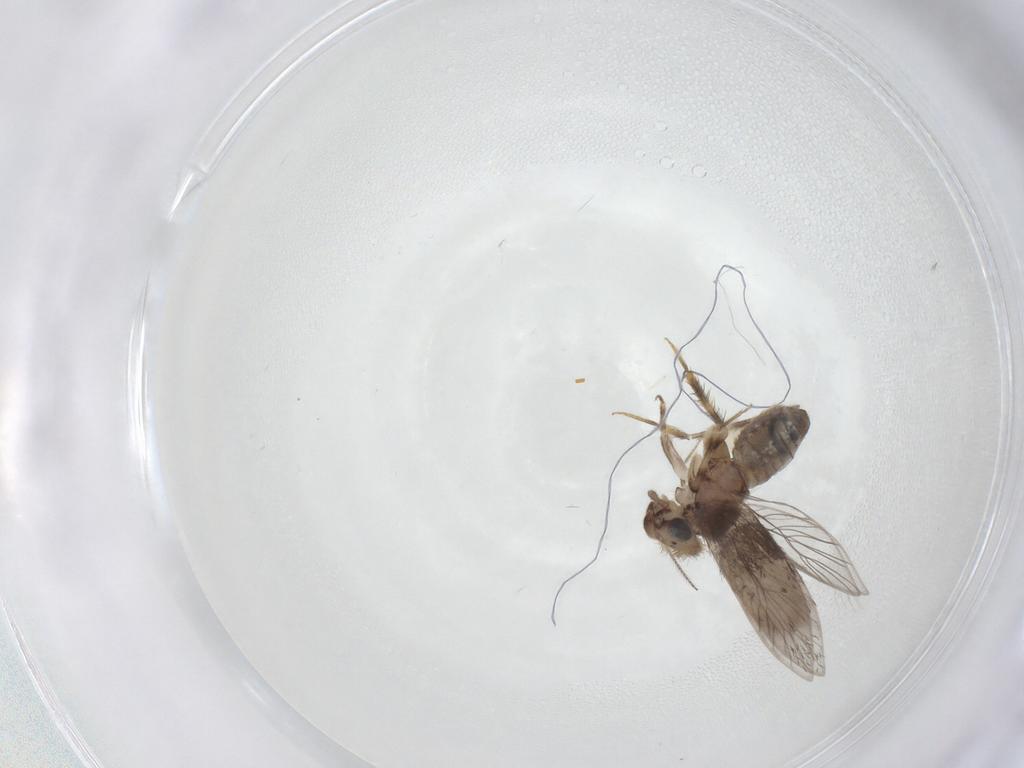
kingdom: Animalia
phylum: Arthropoda
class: Insecta
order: Psocodea
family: Lepidopsocidae
